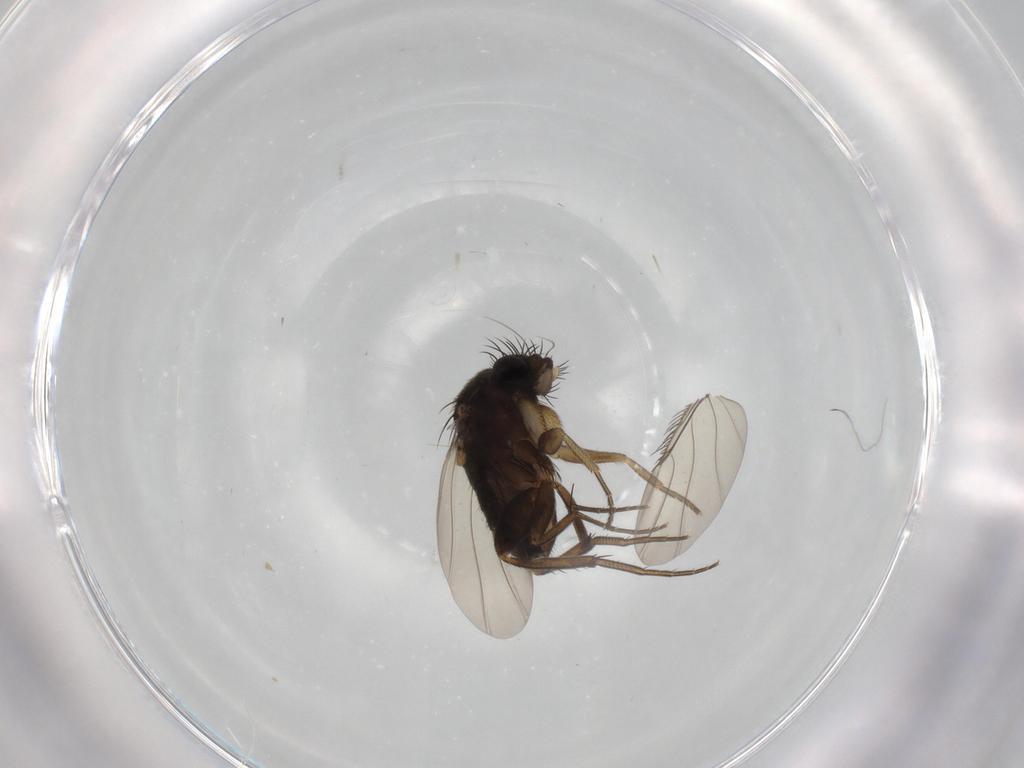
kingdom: Animalia
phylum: Arthropoda
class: Insecta
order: Diptera
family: Phoridae
